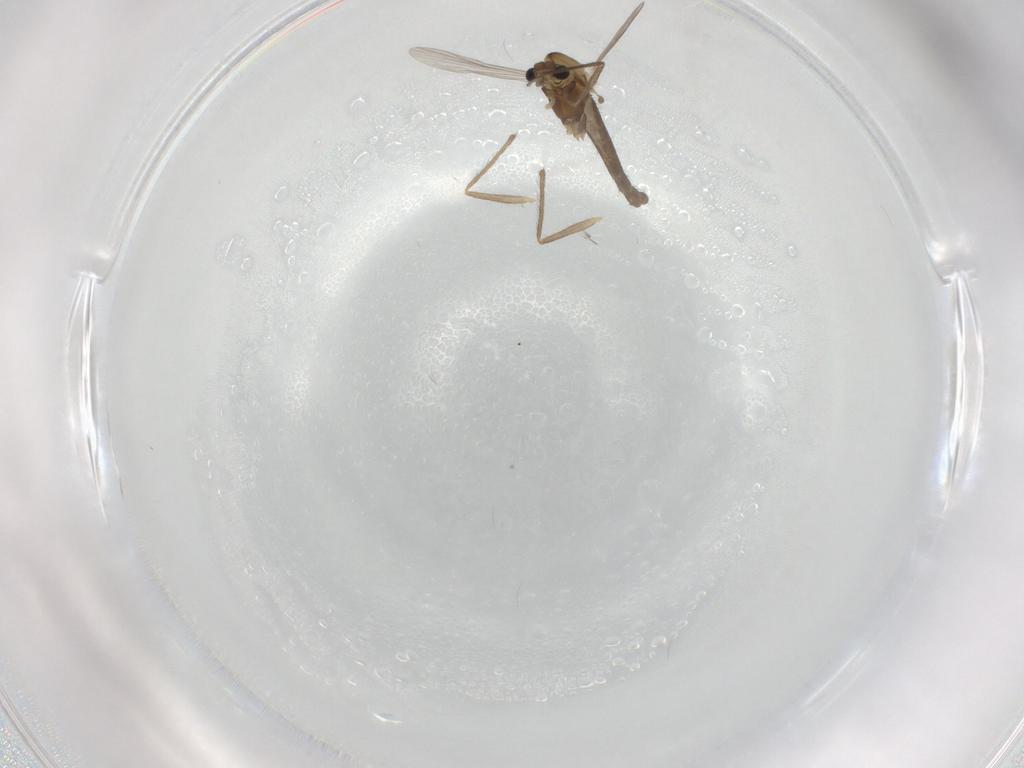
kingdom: Animalia
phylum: Arthropoda
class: Insecta
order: Diptera
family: Chironomidae
